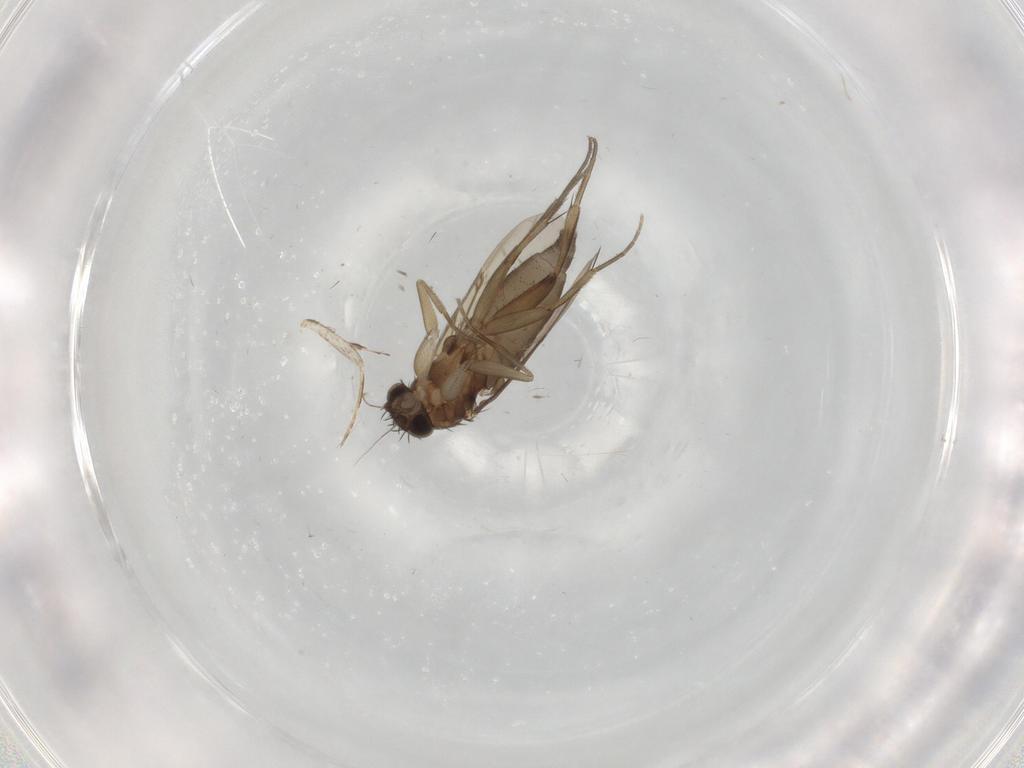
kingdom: Animalia
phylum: Arthropoda
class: Insecta
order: Diptera
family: Phoridae
